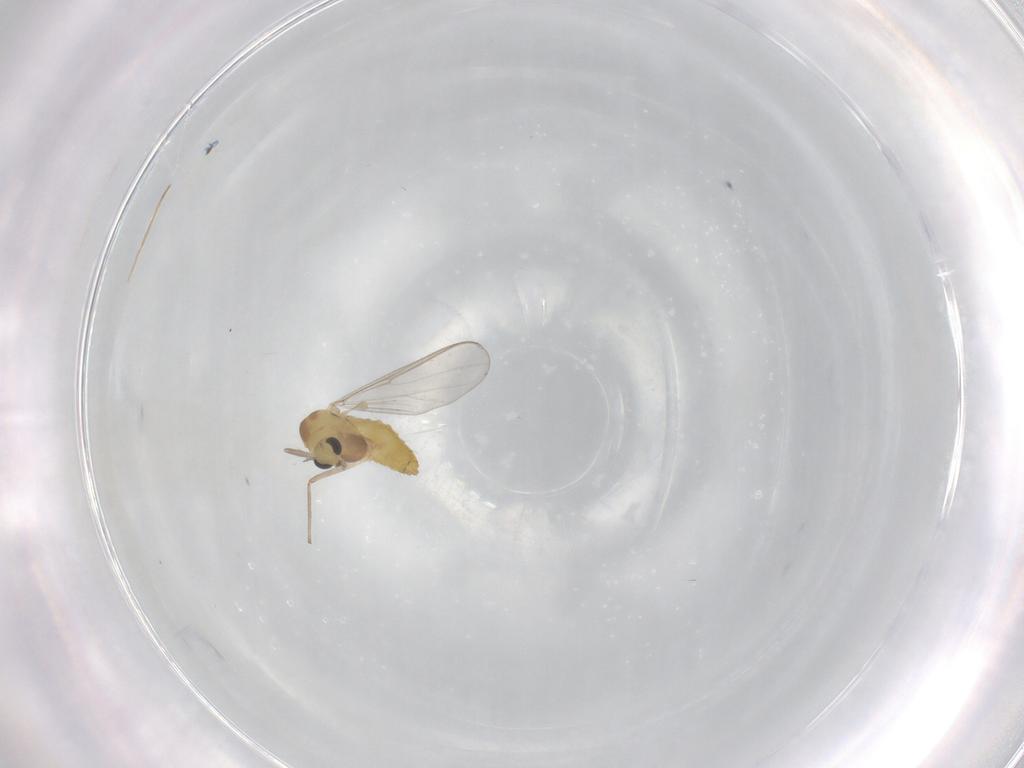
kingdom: Animalia
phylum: Arthropoda
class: Insecta
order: Diptera
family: Chironomidae
